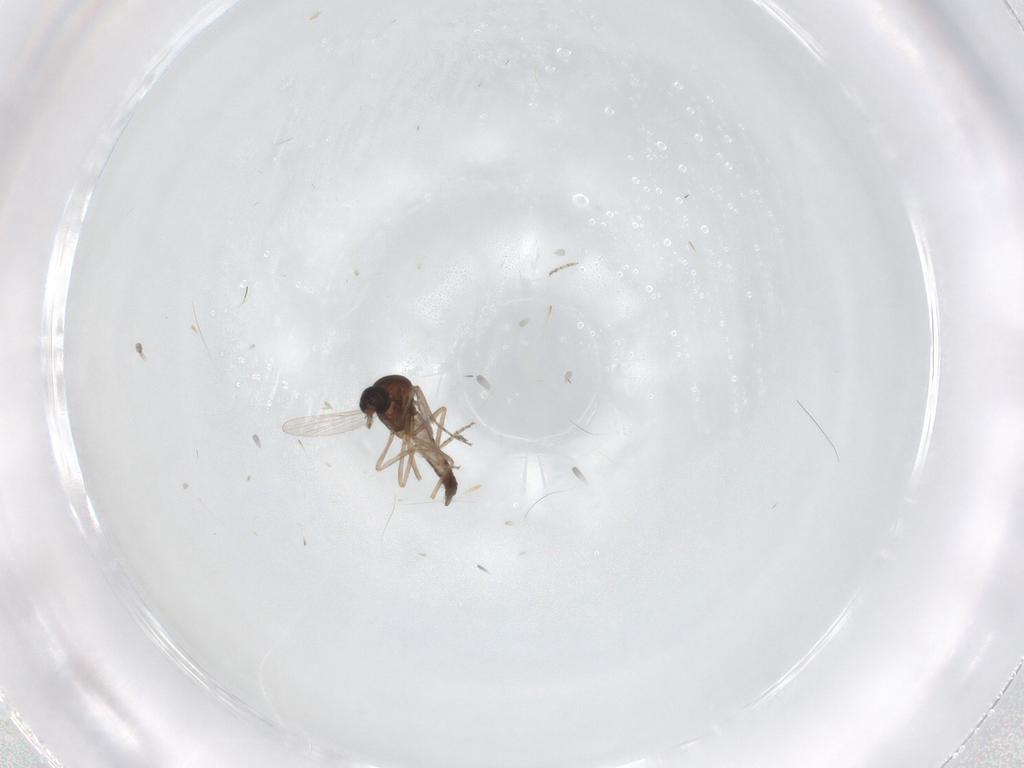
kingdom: Animalia
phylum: Arthropoda
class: Insecta
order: Diptera
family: Ceratopogonidae
